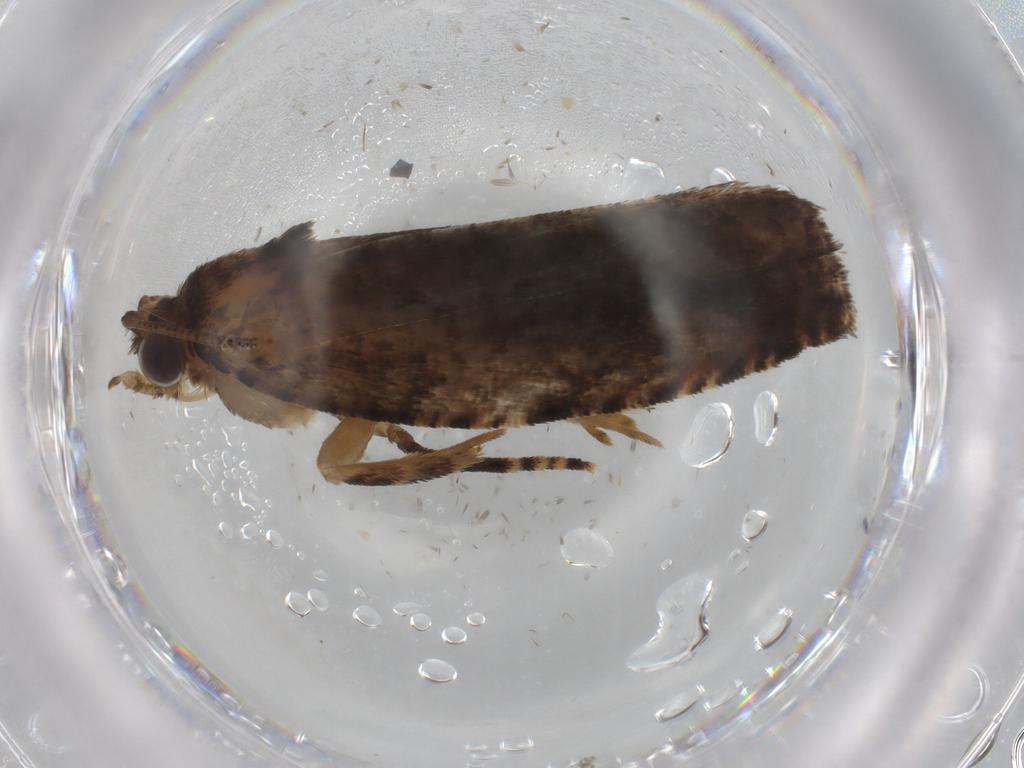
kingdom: Animalia
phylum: Arthropoda
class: Insecta
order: Lepidoptera
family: Tortricidae
